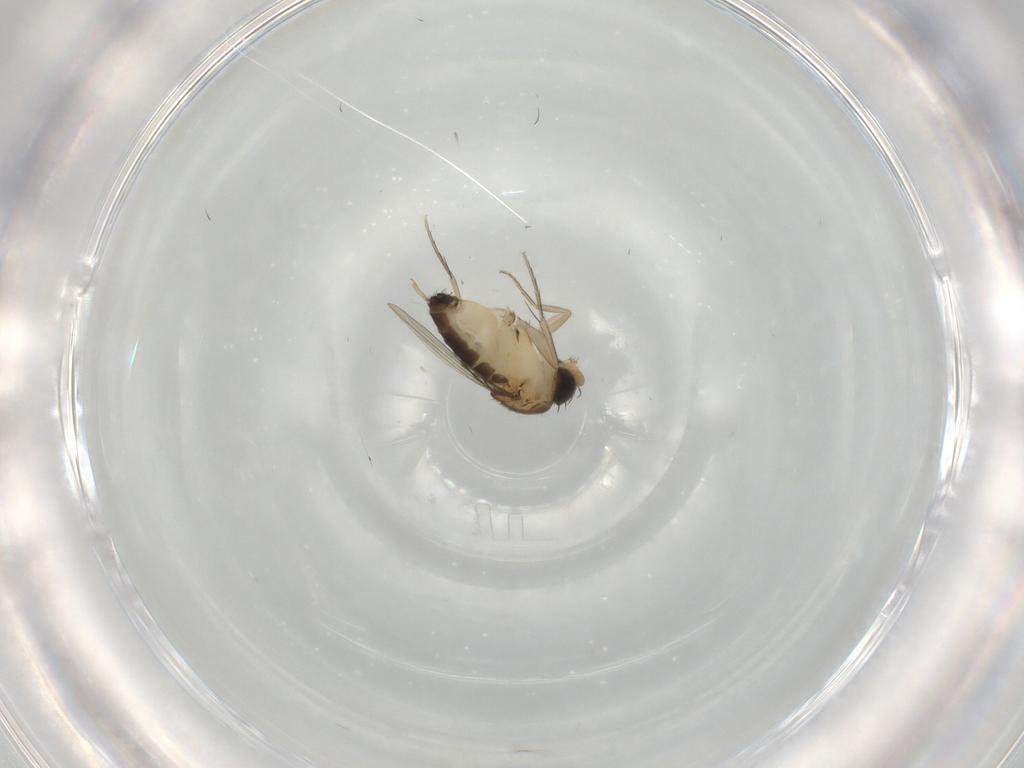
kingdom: Animalia
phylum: Arthropoda
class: Insecta
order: Diptera
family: Phoridae
